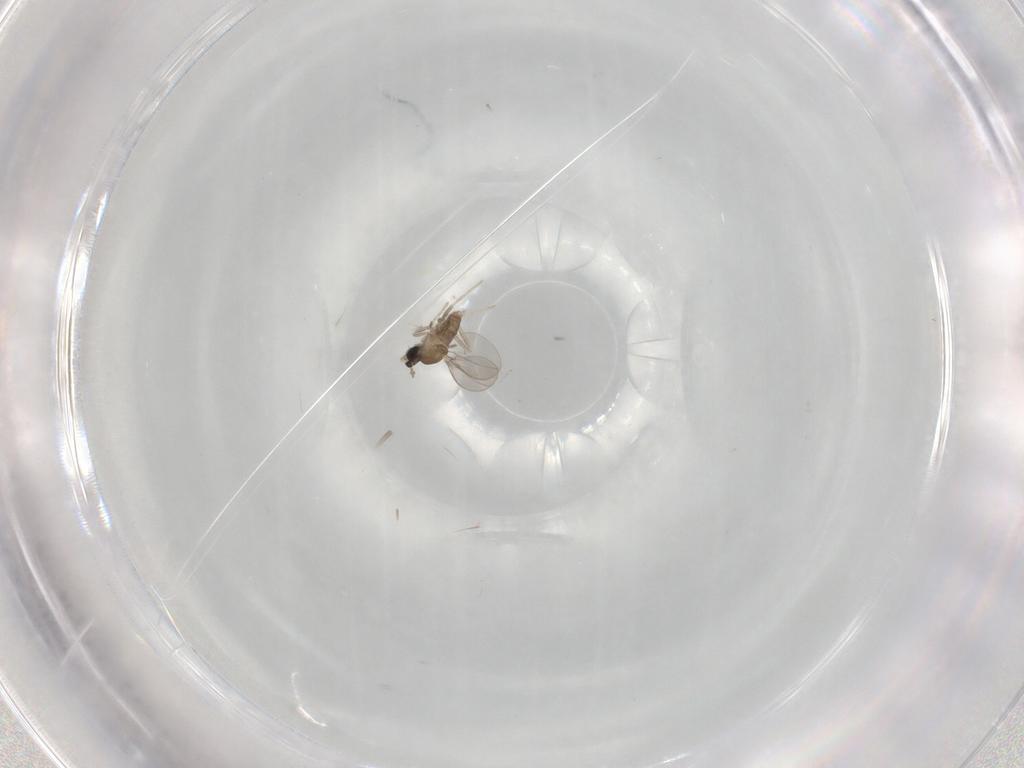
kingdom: Animalia
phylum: Arthropoda
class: Insecta
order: Diptera
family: Cecidomyiidae
